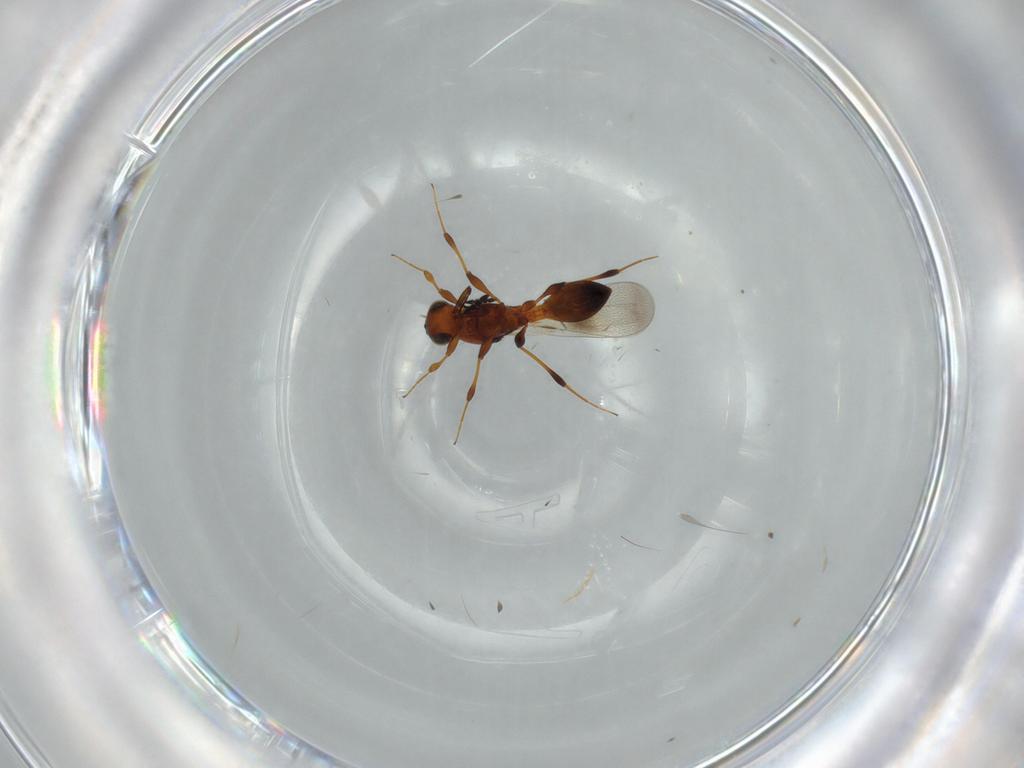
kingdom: Animalia
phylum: Arthropoda
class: Insecta
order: Hymenoptera
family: Platygastridae
